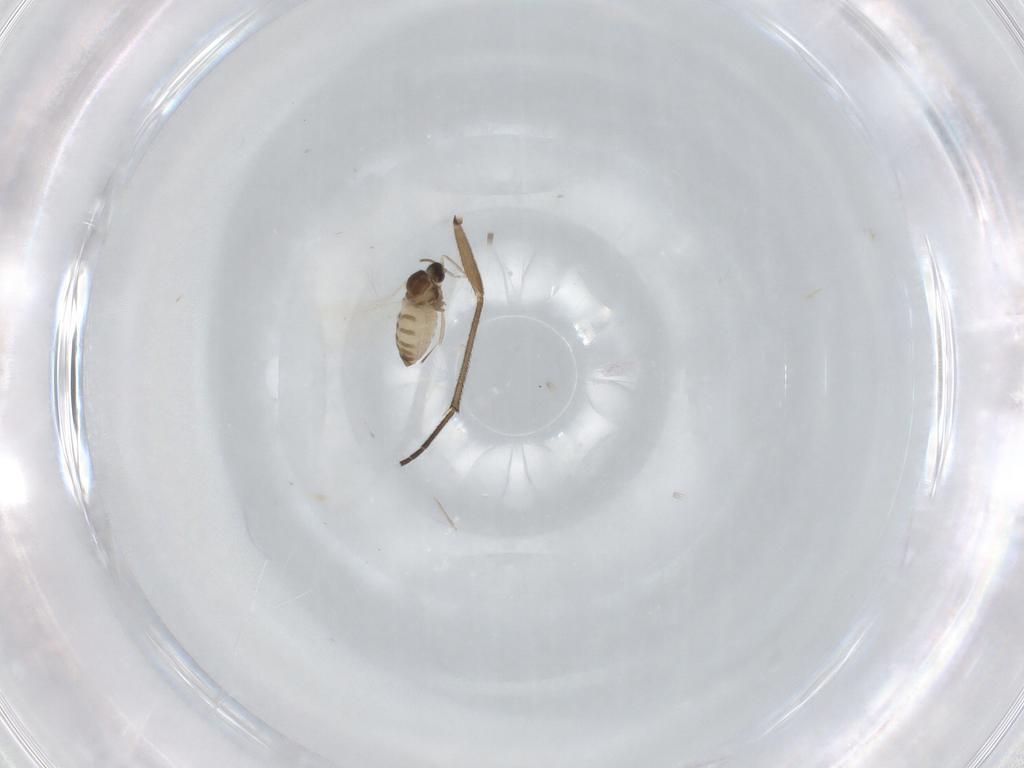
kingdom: Animalia
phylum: Arthropoda
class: Insecta
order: Diptera
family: Cecidomyiidae
